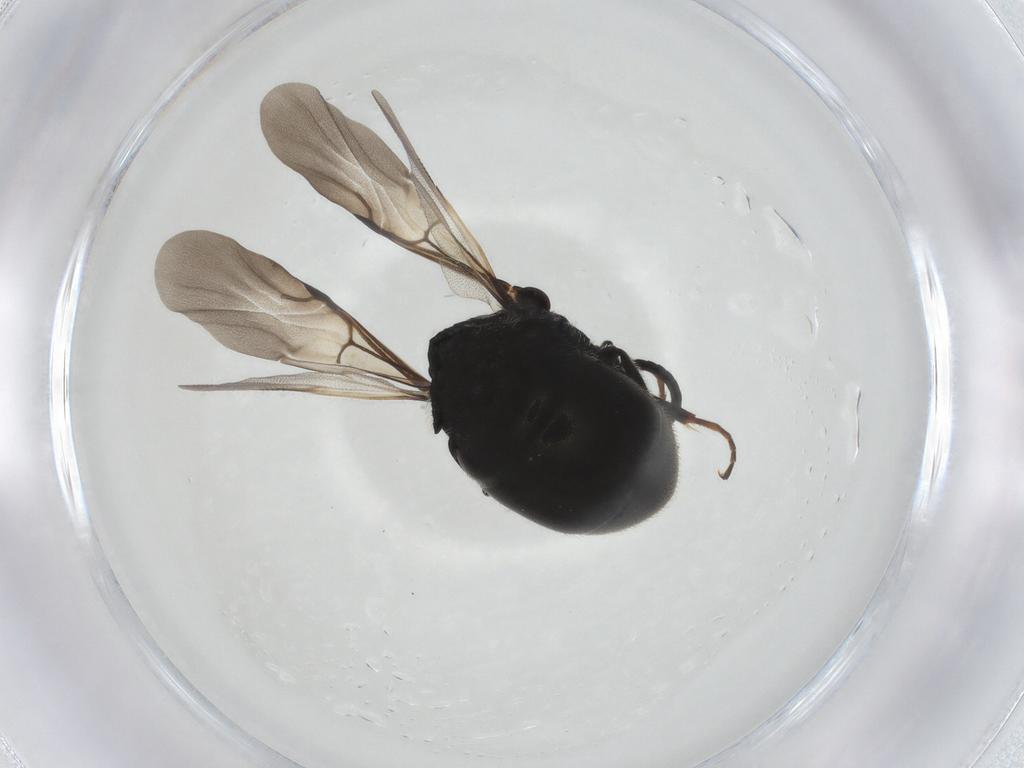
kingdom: Animalia
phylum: Arthropoda
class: Insecta
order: Hymenoptera
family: Chrysididae
